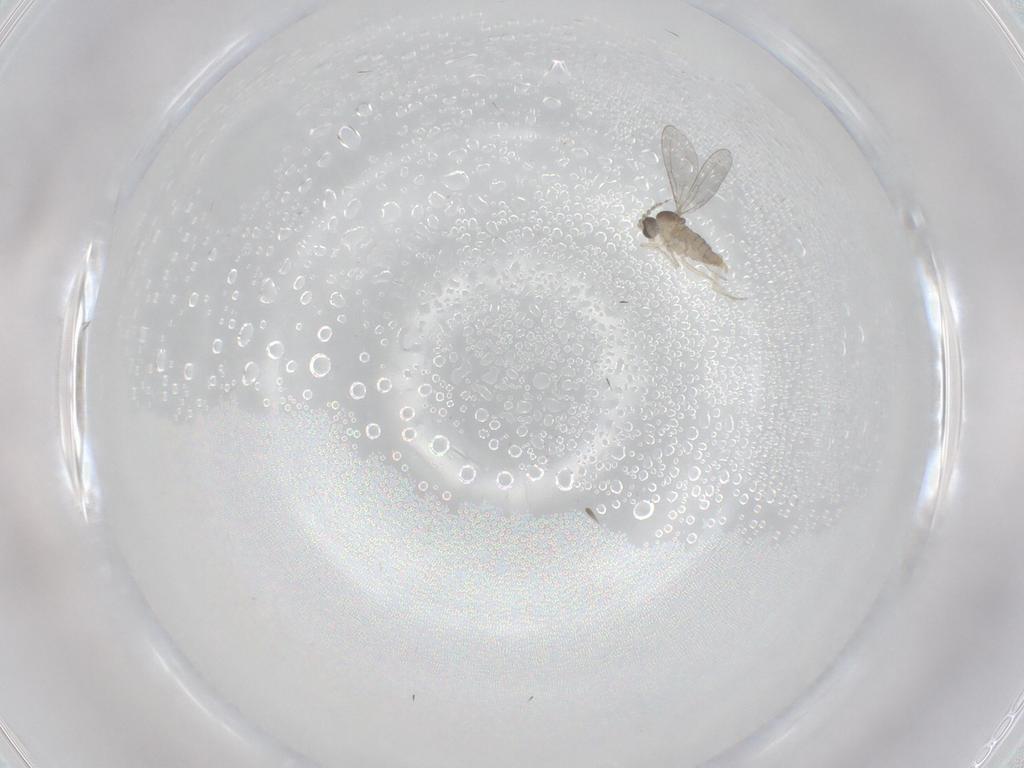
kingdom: Animalia
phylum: Arthropoda
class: Insecta
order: Diptera
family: Cecidomyiidae
